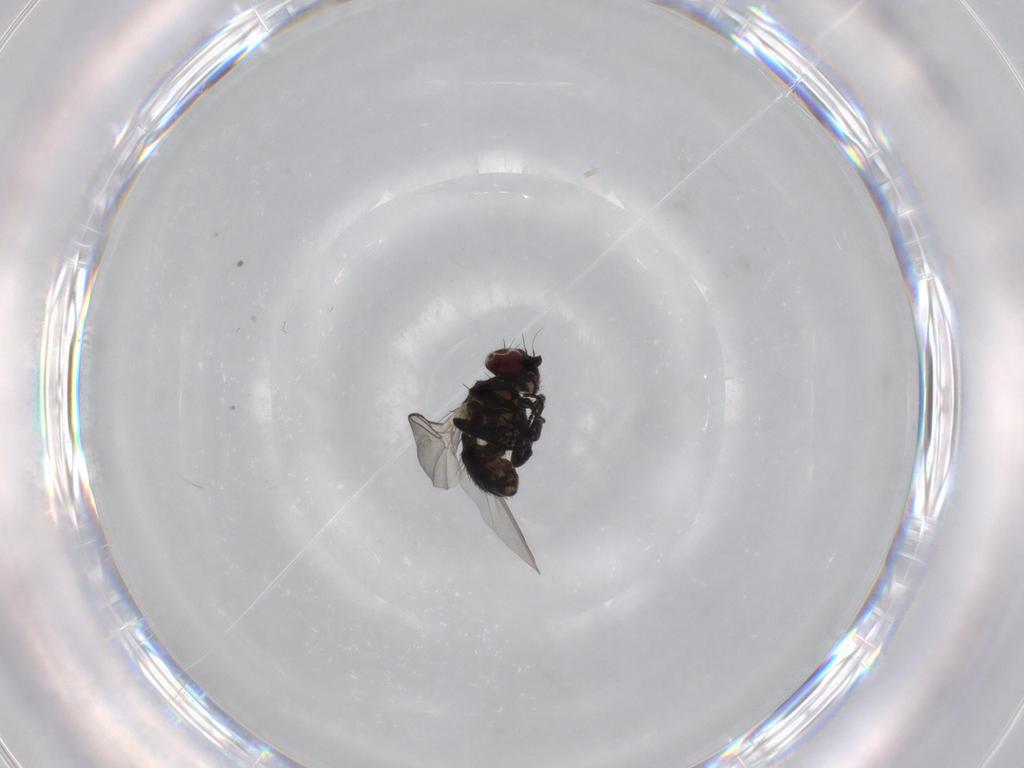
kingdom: Animalia
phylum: Arthropoda
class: Insecta
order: Diptera
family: Agromyzidae
